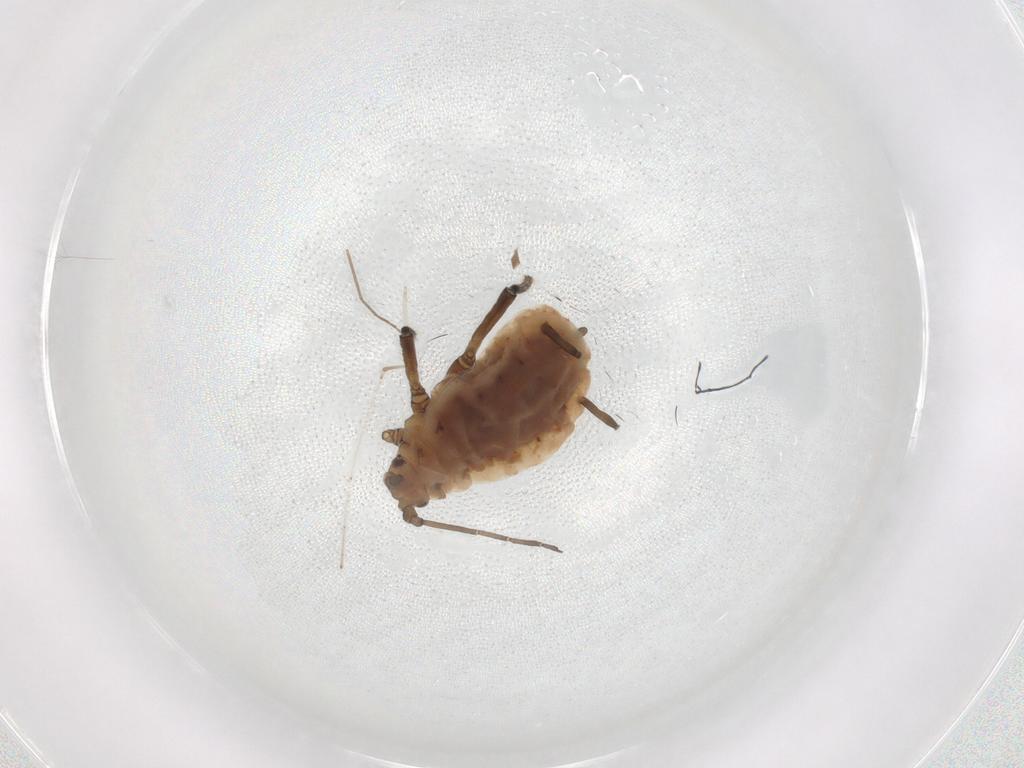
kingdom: Animalia
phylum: Arthropoda
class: Insecta
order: Hemiptera
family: Aphididae
